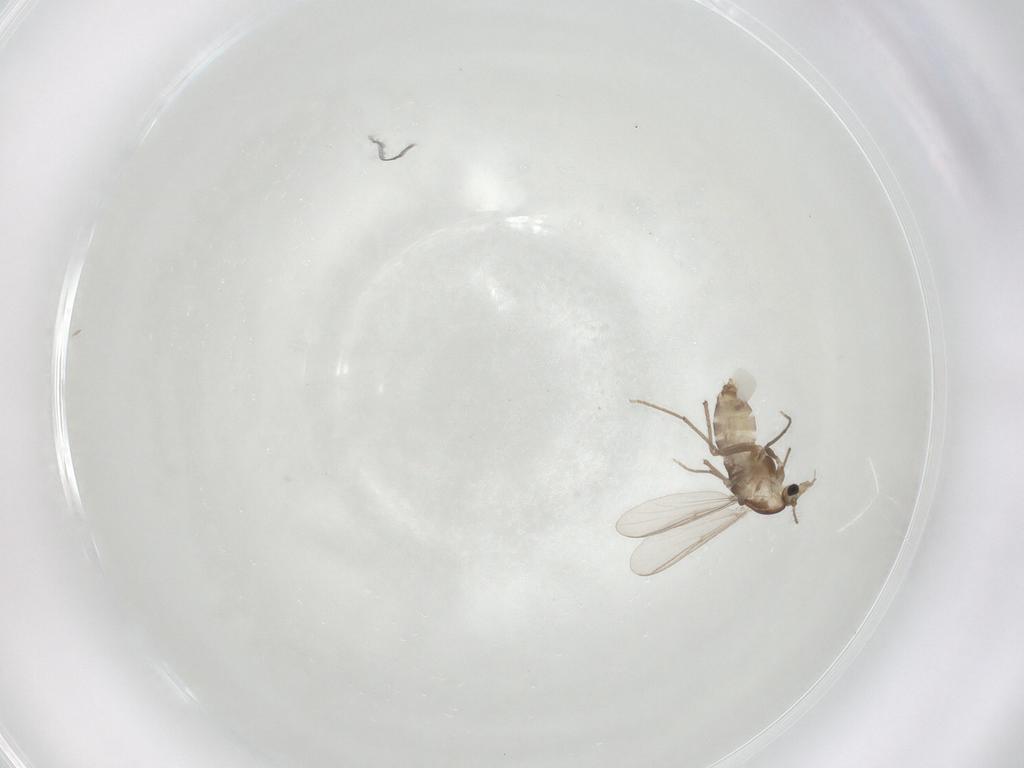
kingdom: Animalia
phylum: Arthropoda
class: Insecta
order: Diptera
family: Chironomidae
